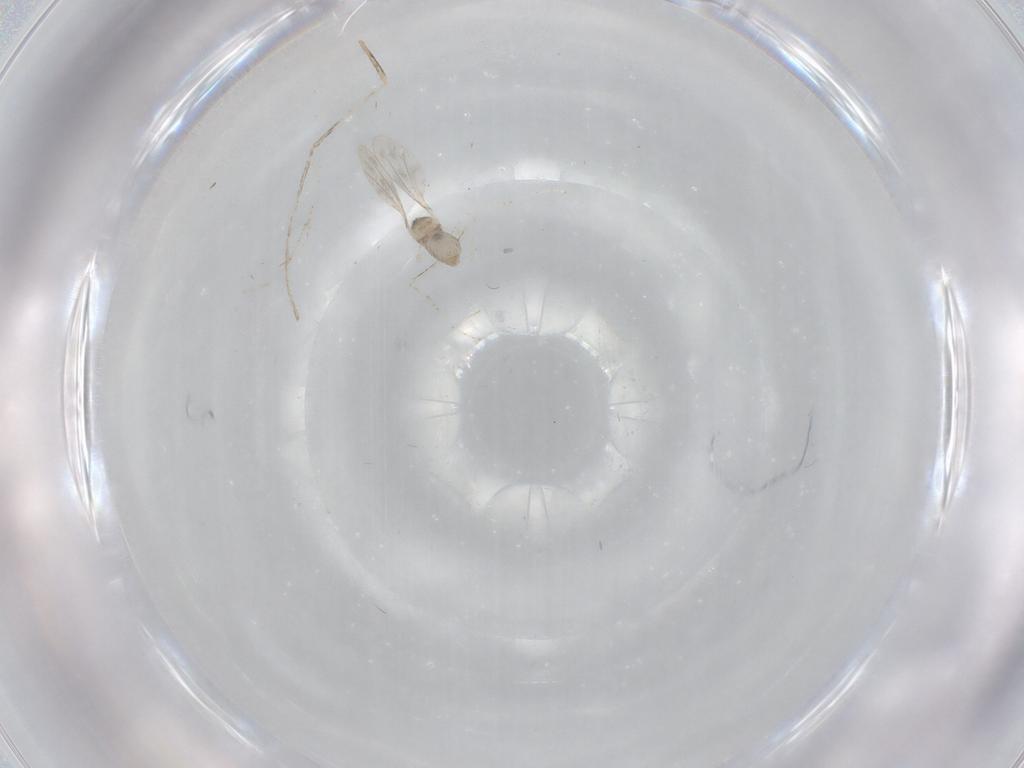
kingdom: Animalia
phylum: Arthropoda
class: Insecta
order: Diptera
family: Cecidomyiidae
